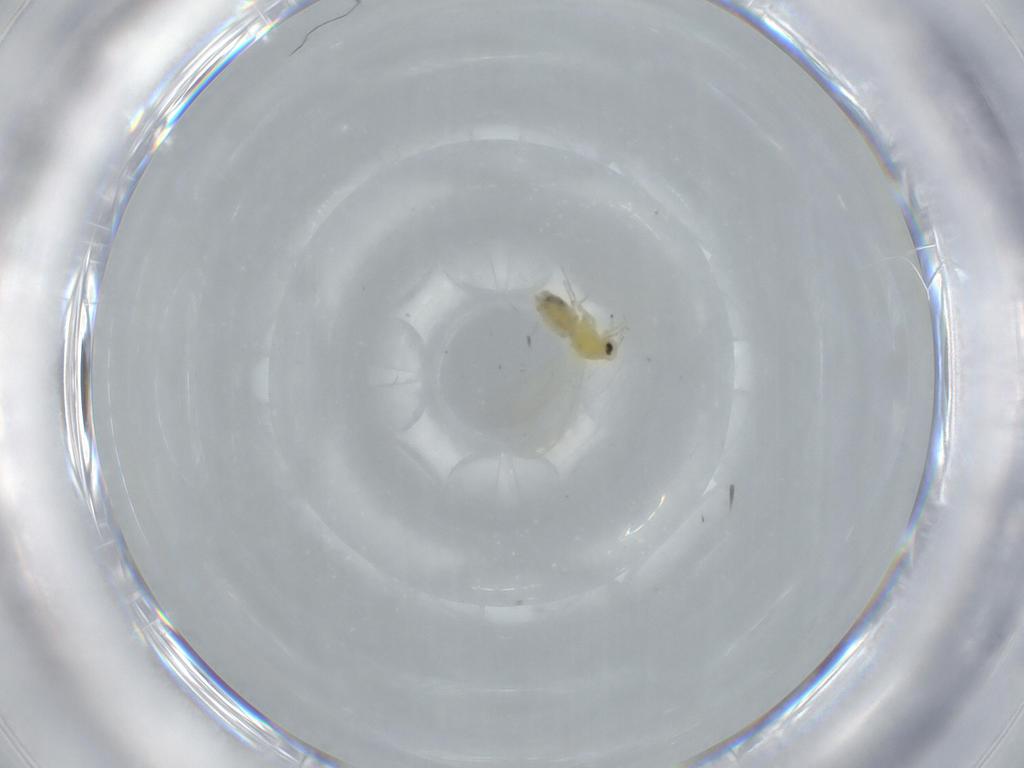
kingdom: Animalia
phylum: Arthropoda
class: Insecta
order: Hemiptera
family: Aleyrodidae
